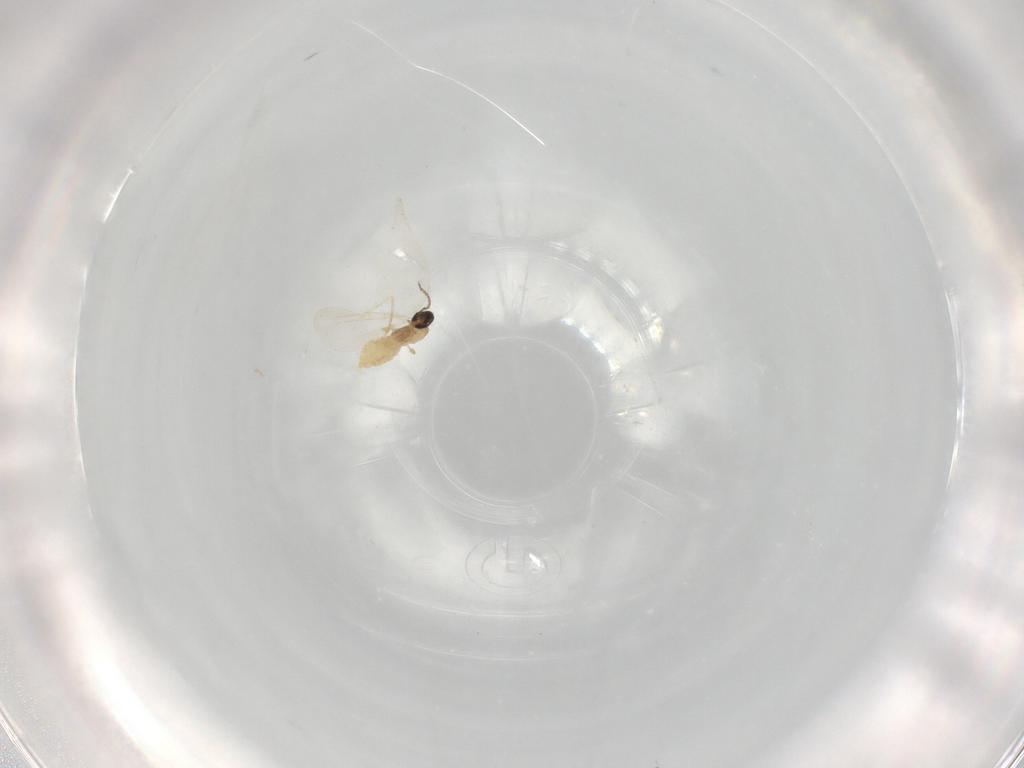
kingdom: Animalia
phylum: Arthropoda
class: Insecta
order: Diptera
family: Cecidomyiidae
